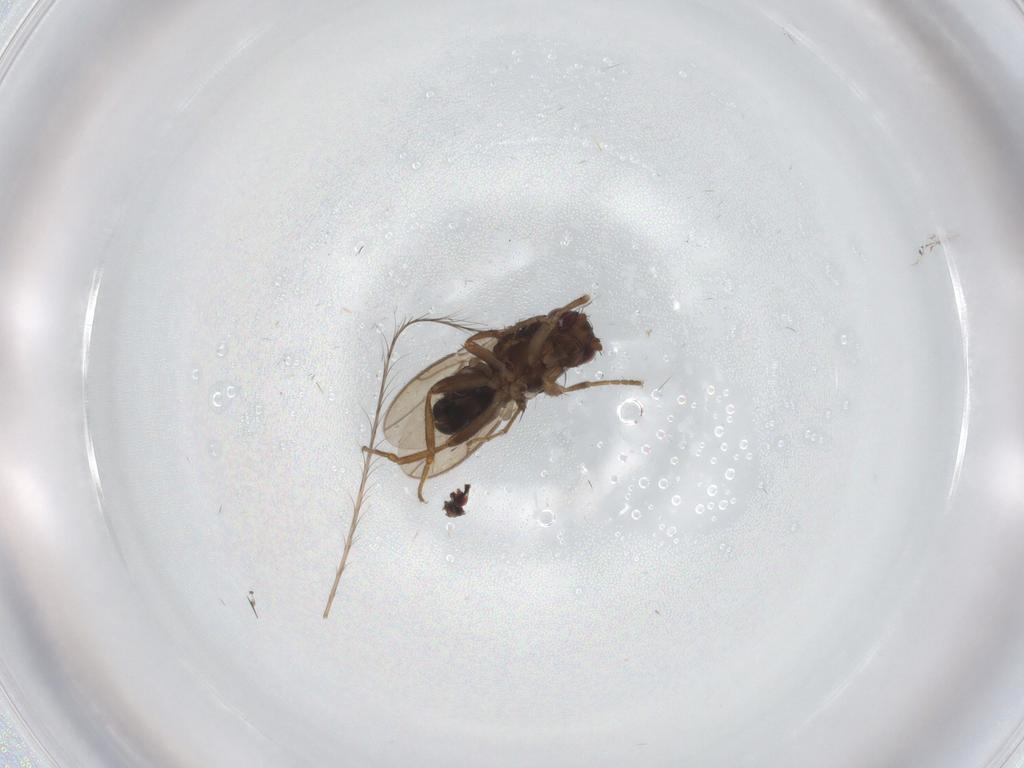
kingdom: Animalia
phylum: Arthropoda
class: Insecta
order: Diptera
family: Sphaeroceridae
